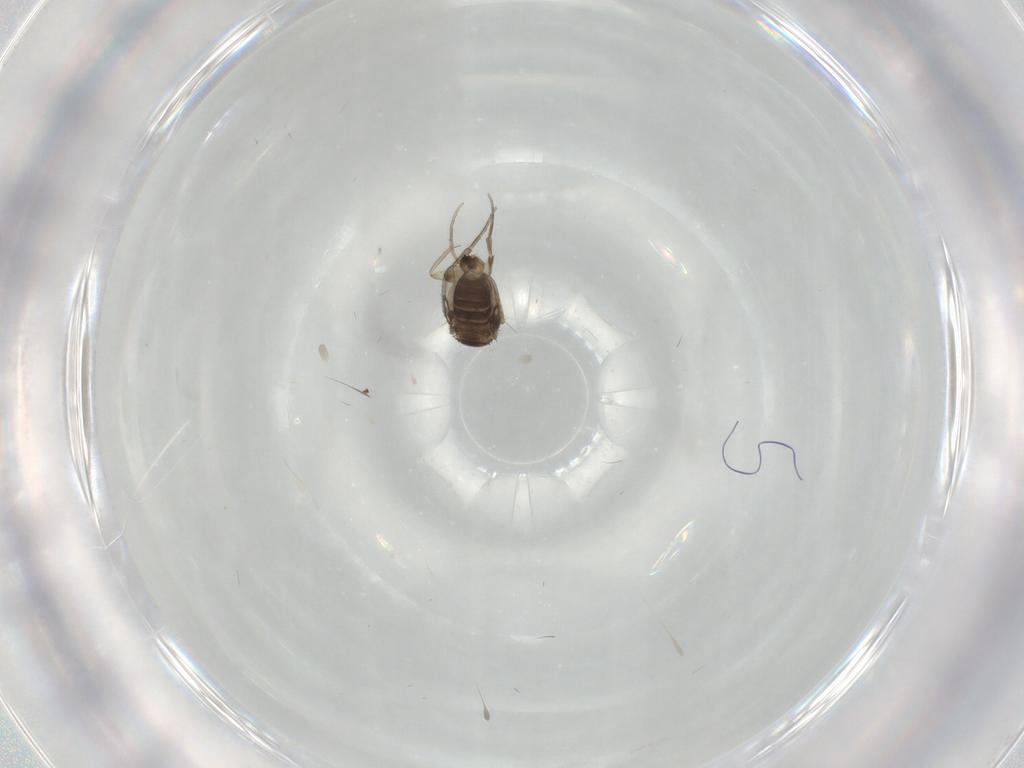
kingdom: Animalia
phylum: Arthropoda
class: Insecta
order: Diptera
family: Phoridae
